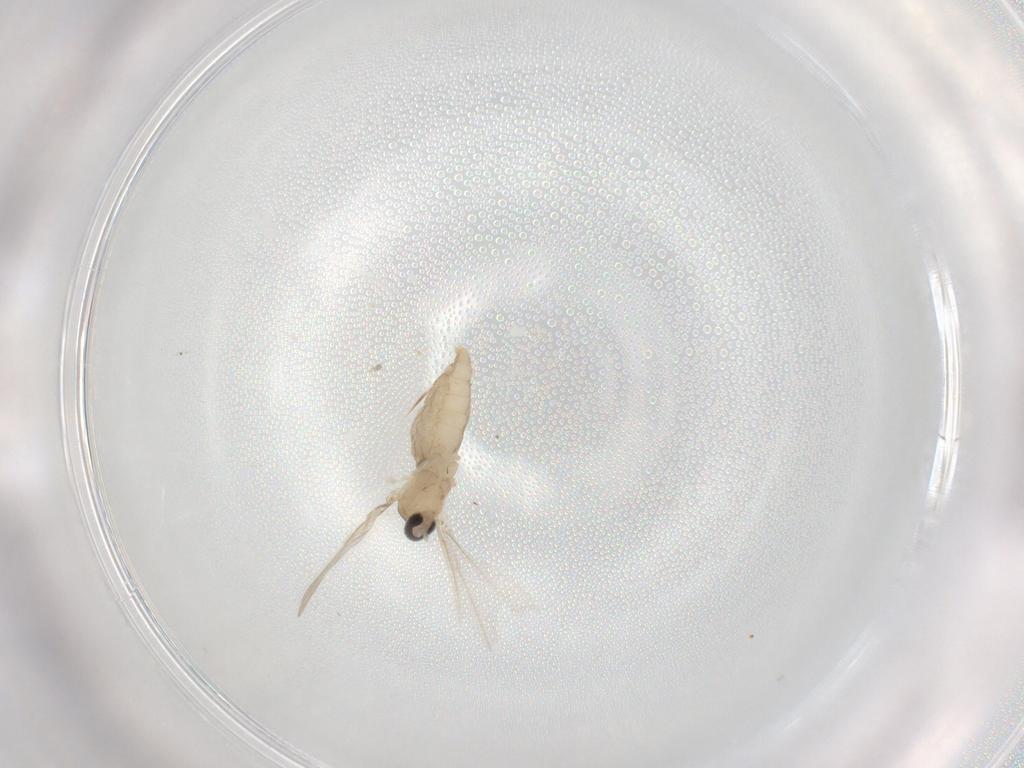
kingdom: Animalia
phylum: Arthropoda
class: Insecta
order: Diptera
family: Cecidomyiidae
